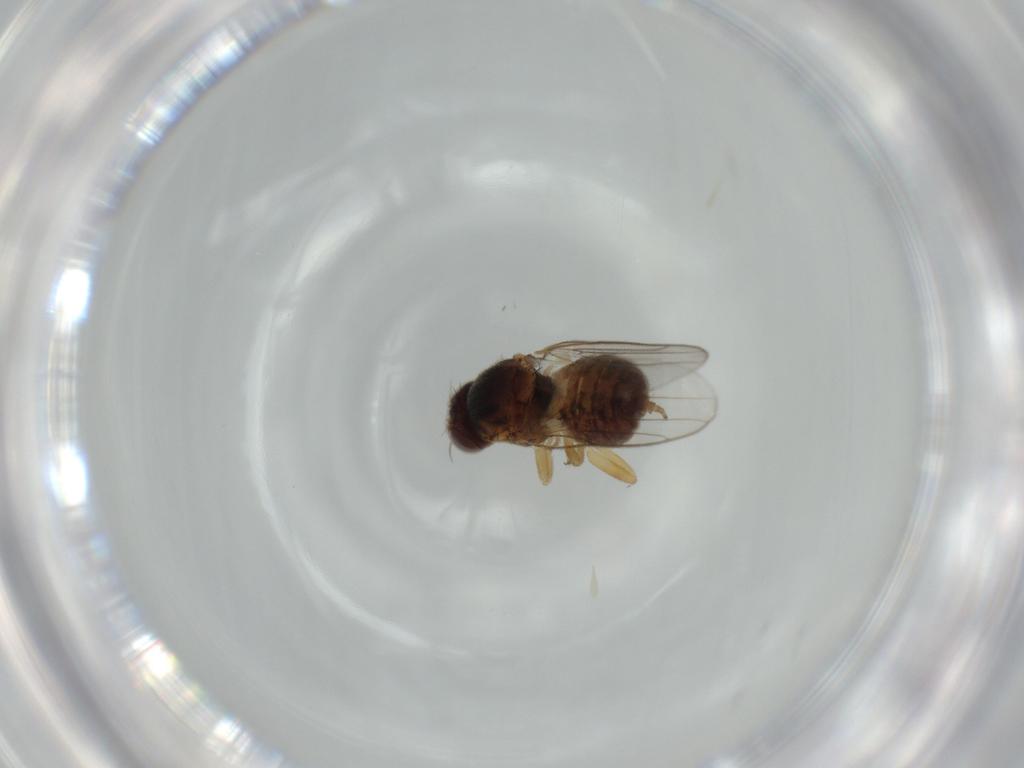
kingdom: Animalia
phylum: Arthropoda
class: Insecta
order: Diptera
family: Chloropidae
